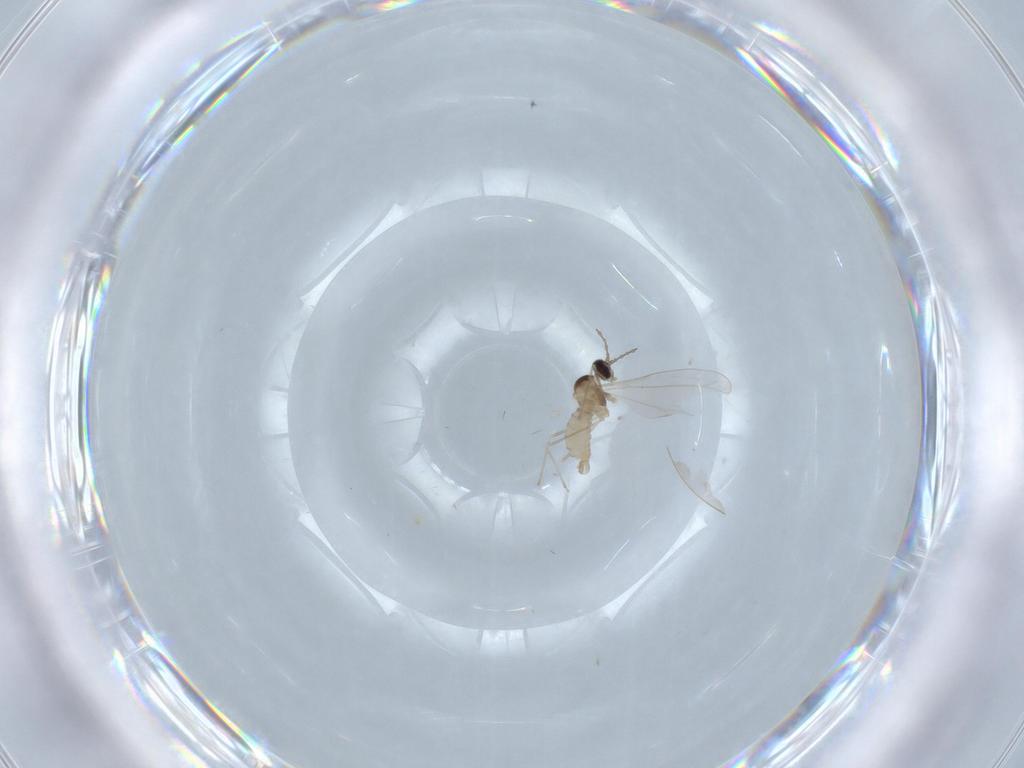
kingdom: Animalia
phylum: Arthropoda
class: Insecta
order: Diptera
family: Cecidomyiidae
